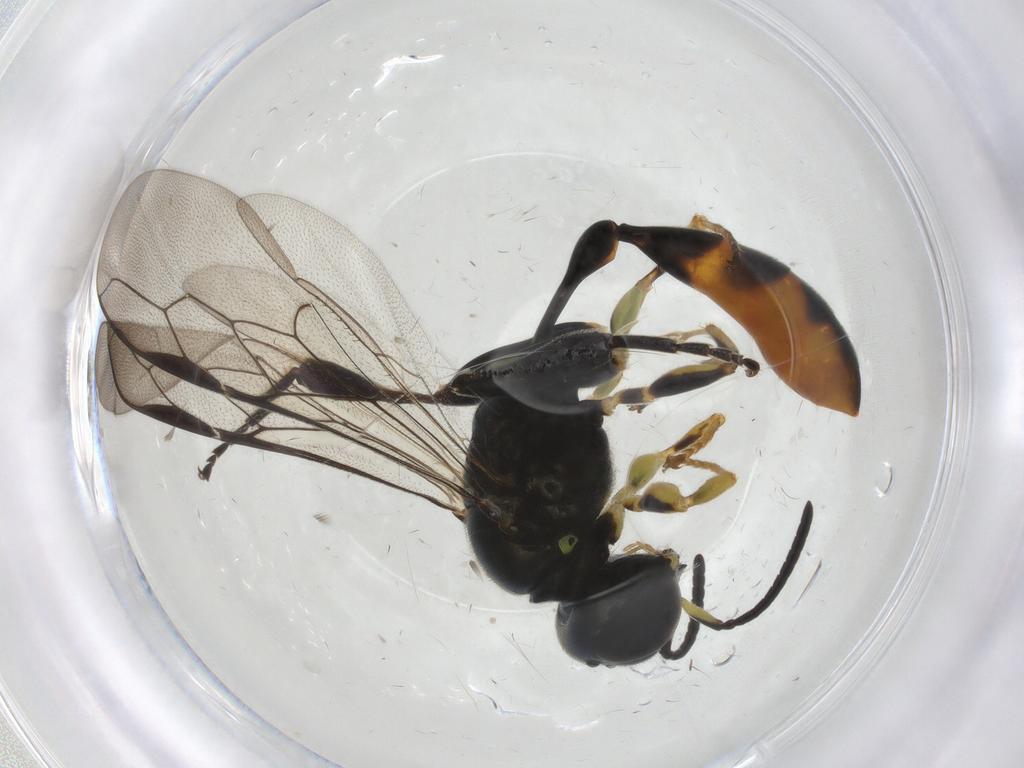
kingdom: Animalia
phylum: Arthropoda
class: Insecta
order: Hymenoptera
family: Crabronidae
